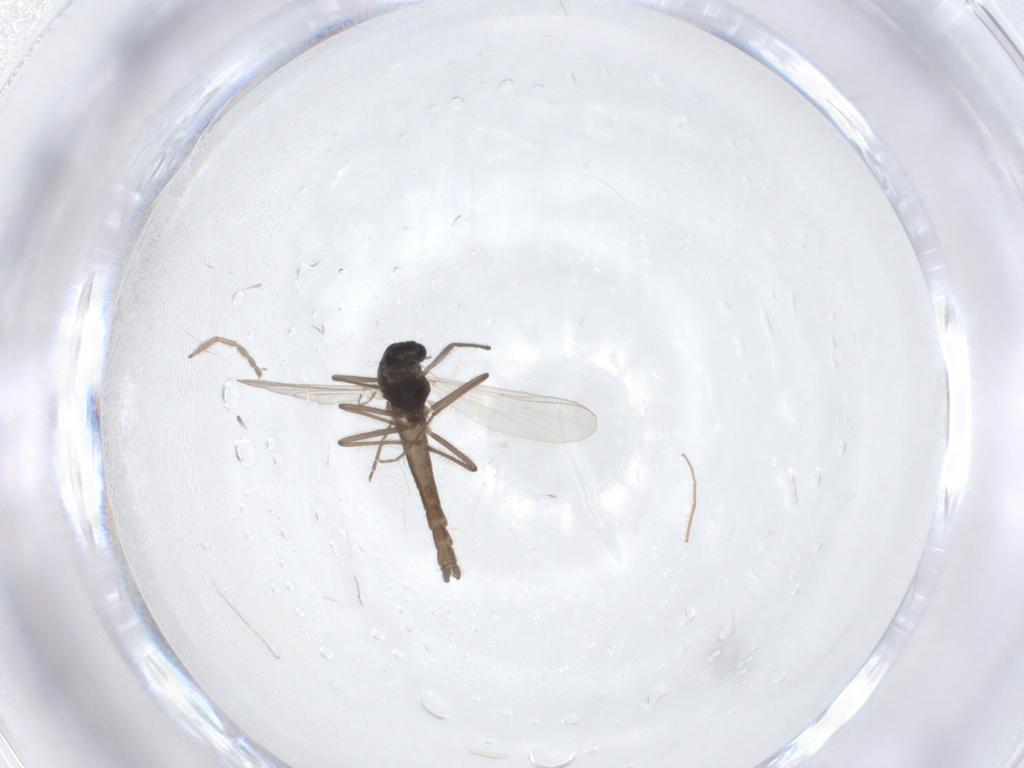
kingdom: Animalia
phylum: Arthropoda
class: Insecta
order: Diptera
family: Chironomidae
